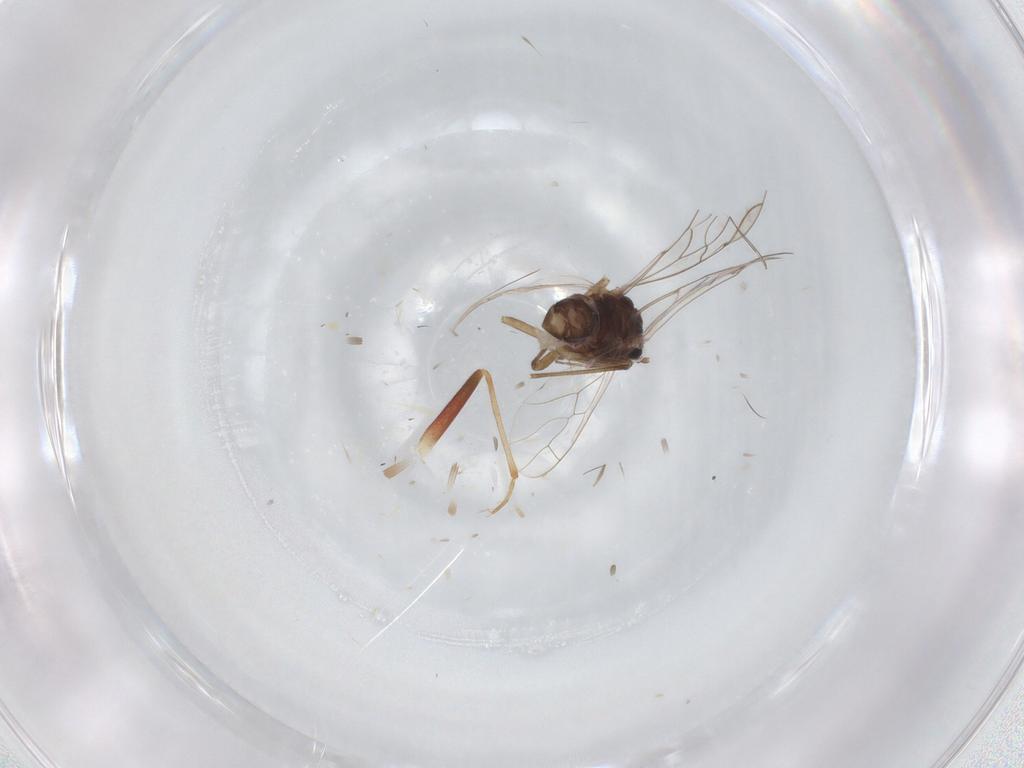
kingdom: Animalia
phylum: Arthropoda
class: Insecta
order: Psocodea
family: Lachesillidae
